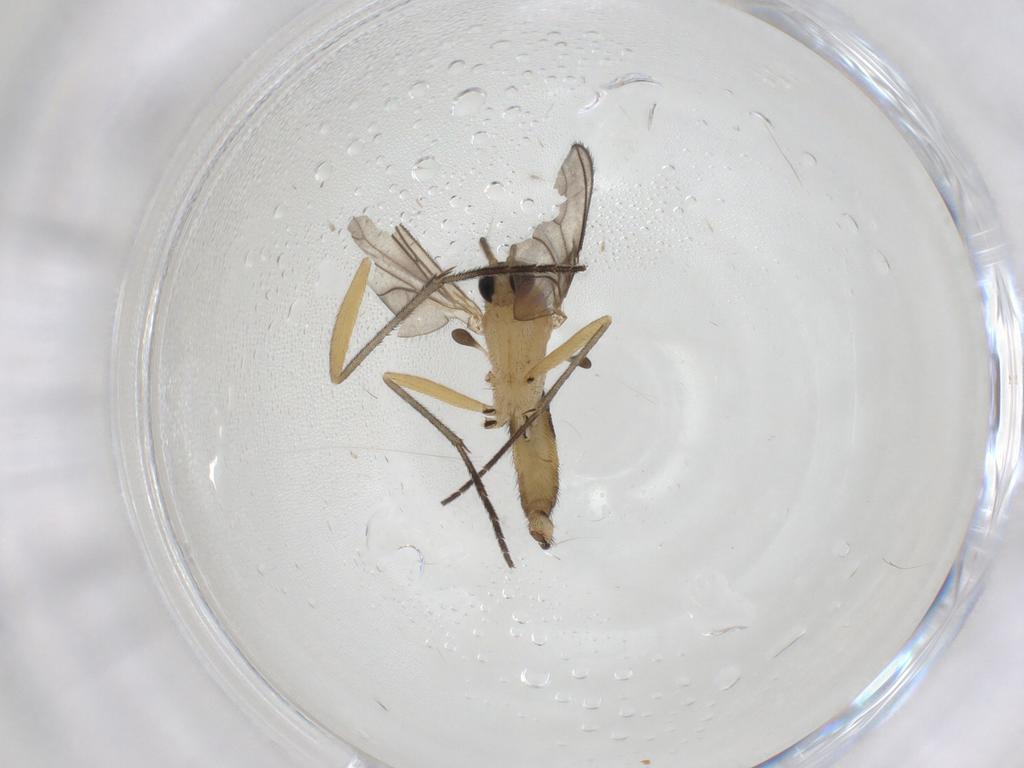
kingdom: Animalia
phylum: Arthropoda
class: Insecta
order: Diptera
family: Sciaridae
